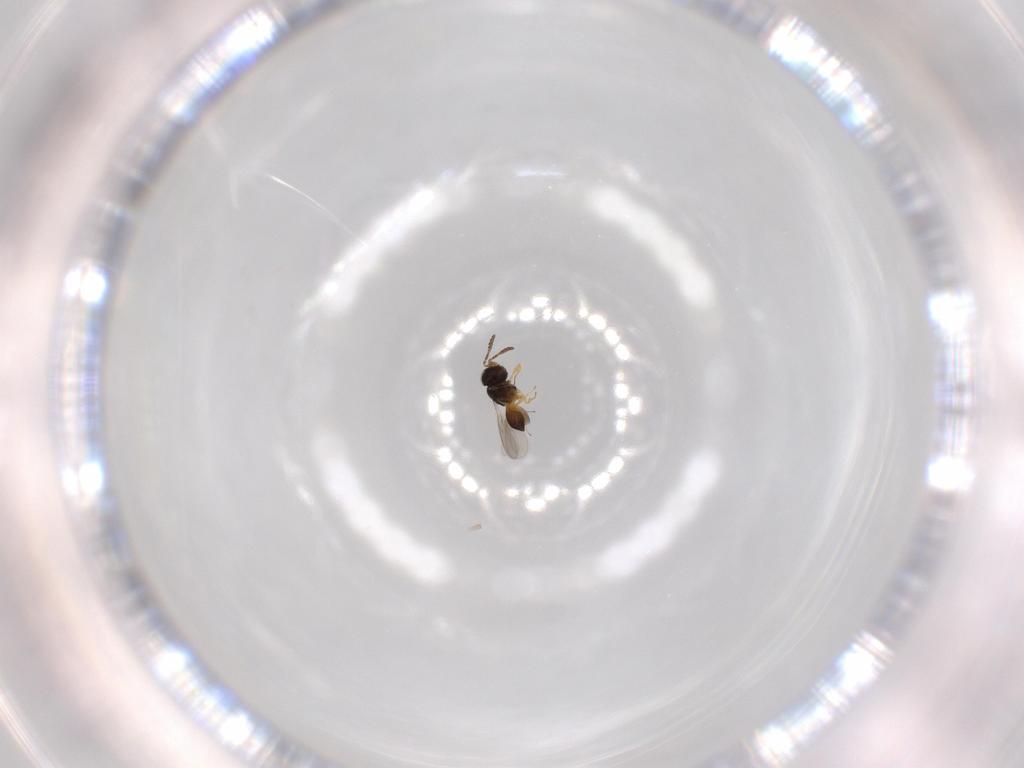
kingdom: Animalia
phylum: Arthropoda
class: Insecta
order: Hymenoptera
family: Scelionidae
